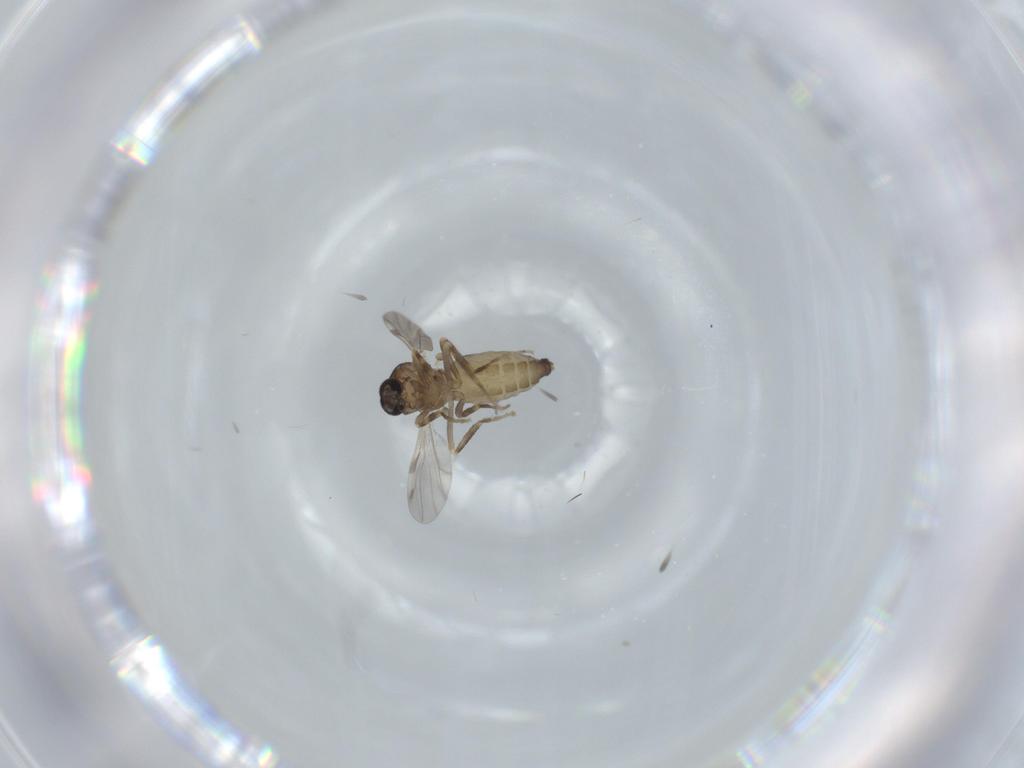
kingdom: Animalia
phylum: Arthropoda
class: Insecta
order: Diptera
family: Ceratopogonidae
